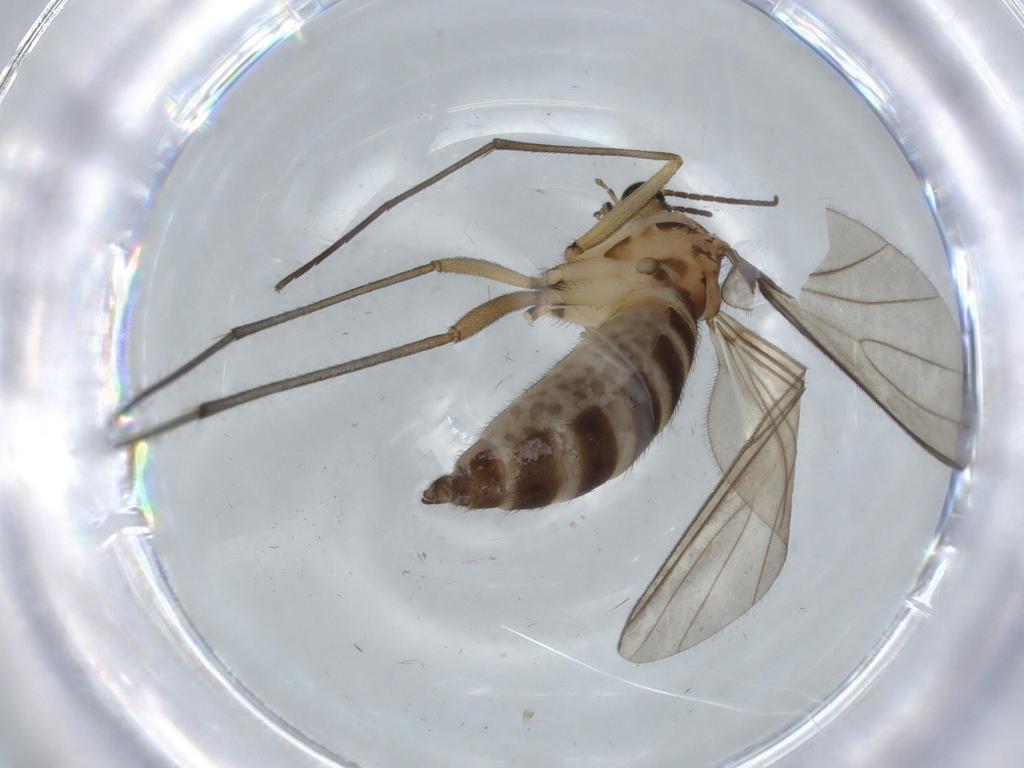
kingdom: Animalia
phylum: Arthropoda
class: Insecta
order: Diptera
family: Sciaridae
